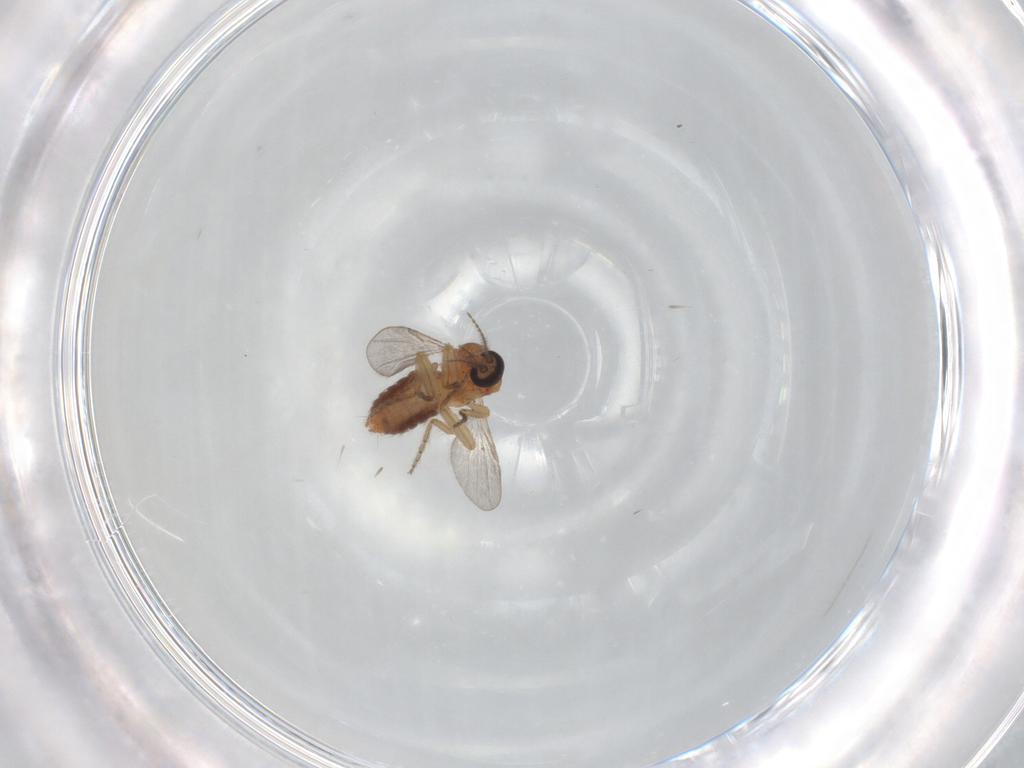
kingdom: Animalia
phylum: Arthropoda
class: Insecta
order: Diptera
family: Ceratopogonidae
